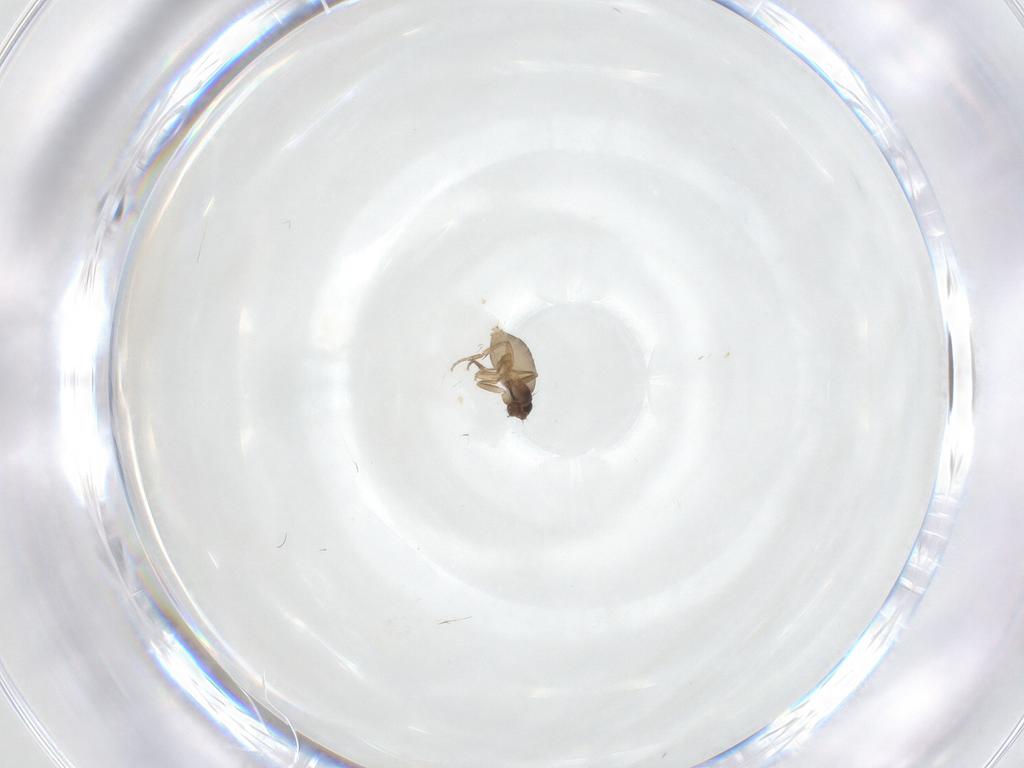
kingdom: Animalia
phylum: Arthropoda
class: Insecta
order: Diptera
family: Phoridae
